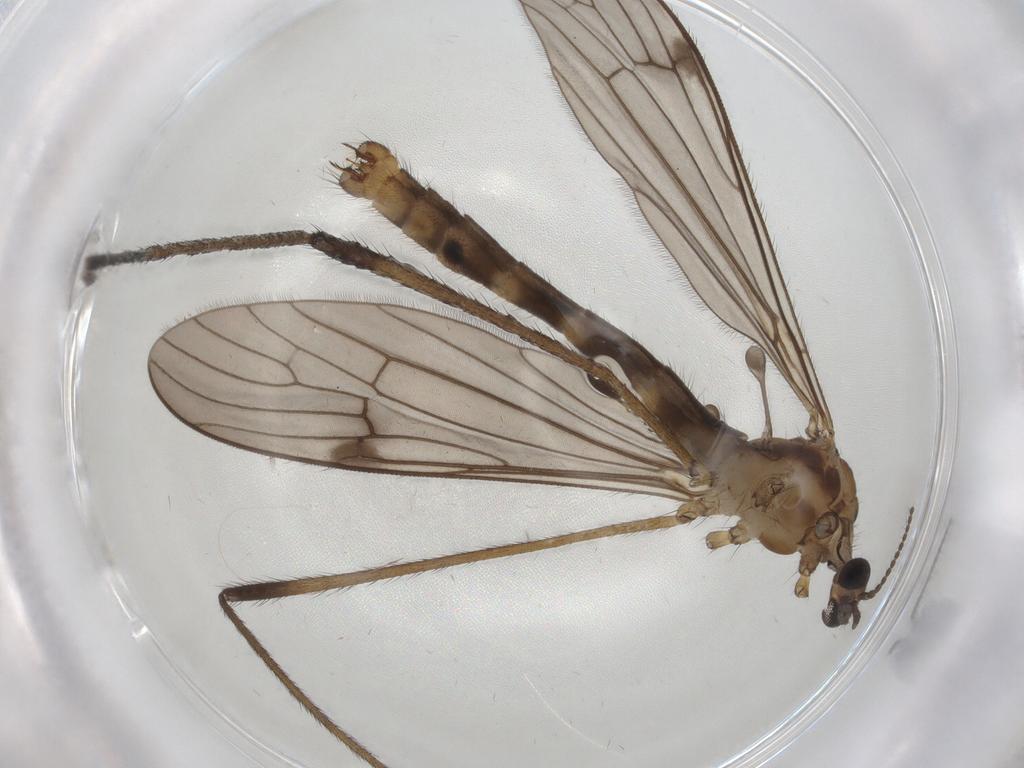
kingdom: Animalia
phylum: Arthropoda
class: Insecta
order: Diptera
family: Limoniidae
